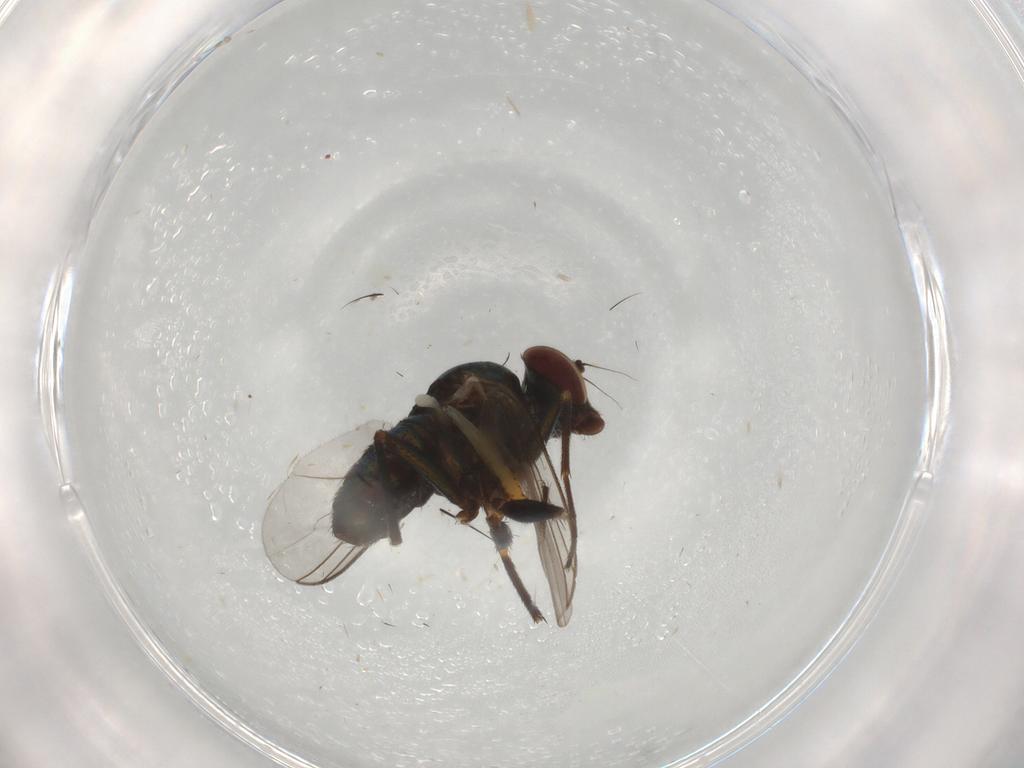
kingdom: Animalia
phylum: Arthropoda
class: Insecta
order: Diptera
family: Dolichopodidae
